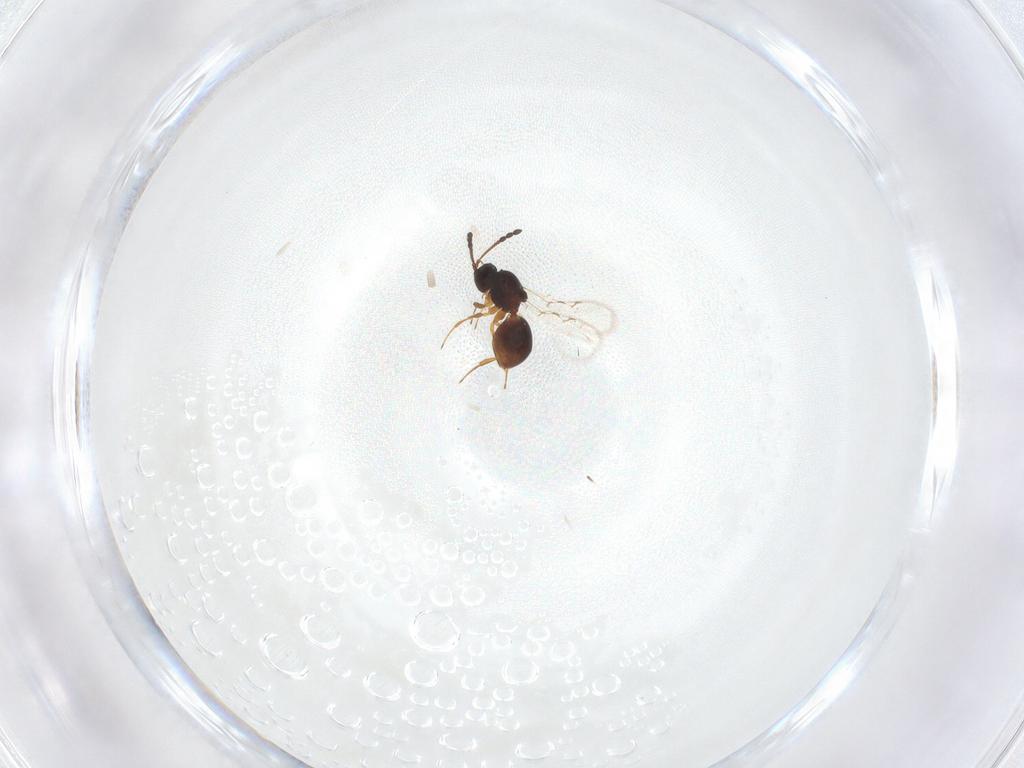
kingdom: Animalia
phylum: Arthropoda
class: Insecta
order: Hymenoptera
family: Figitidae
